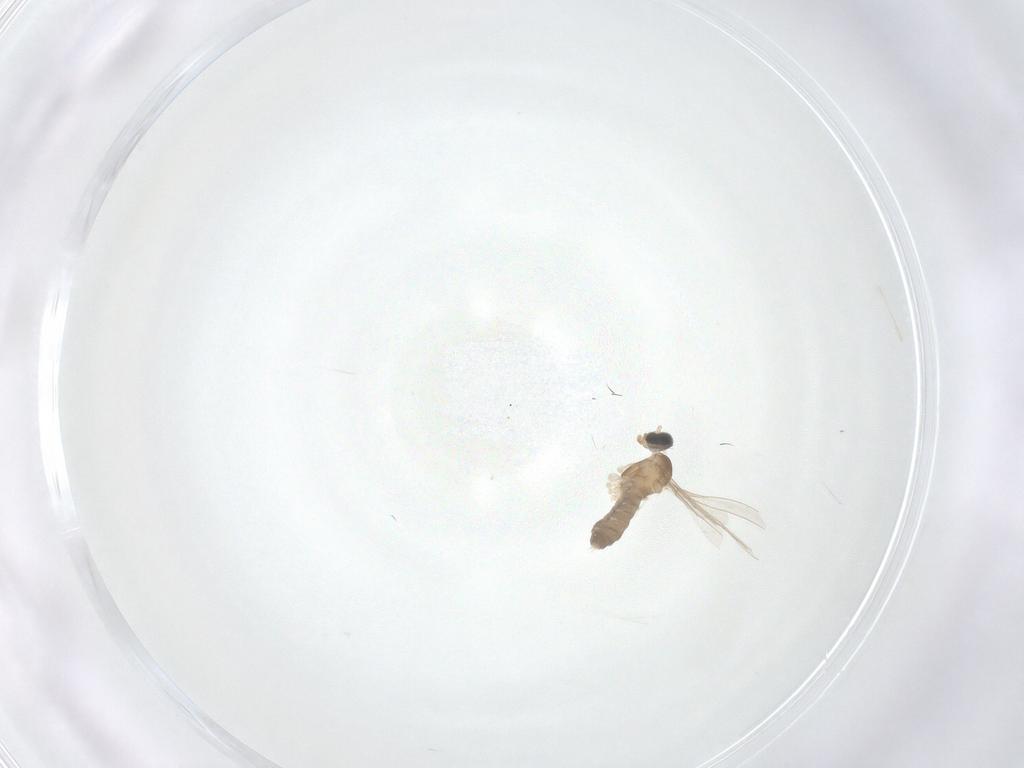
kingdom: Animalia
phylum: Arthropoda
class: Insecta
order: Diptera
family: Cecidomyiidae
